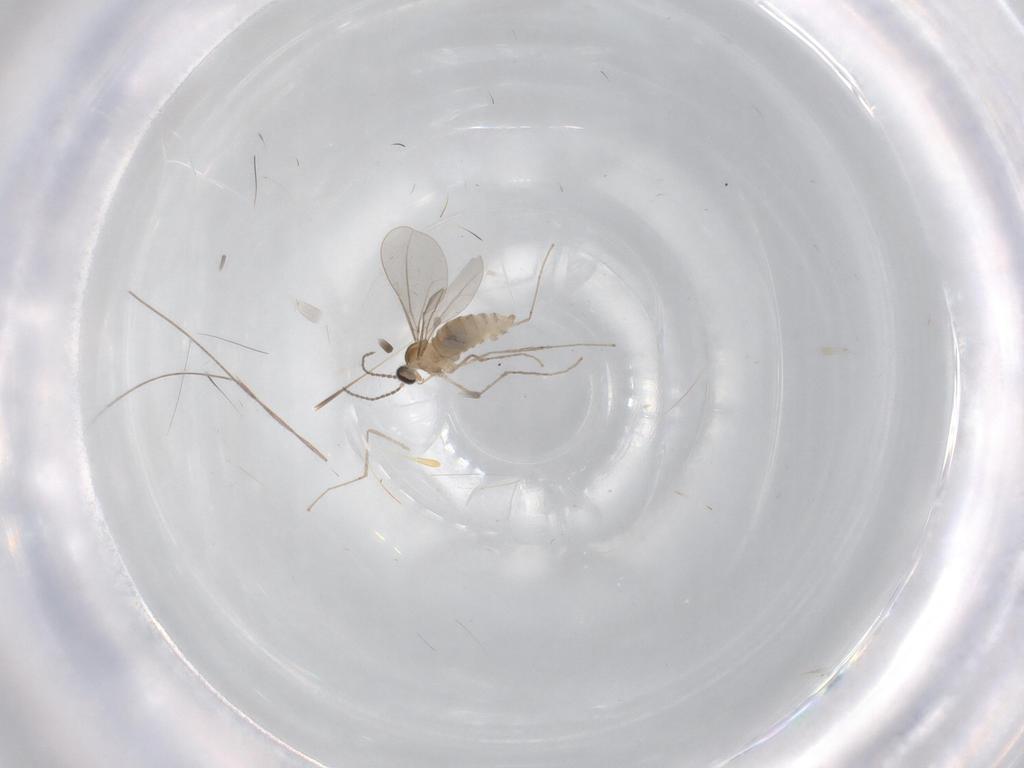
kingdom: Animalia
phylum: Arthropoda
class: Insecta
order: Diptera
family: Cecidomyiidae
